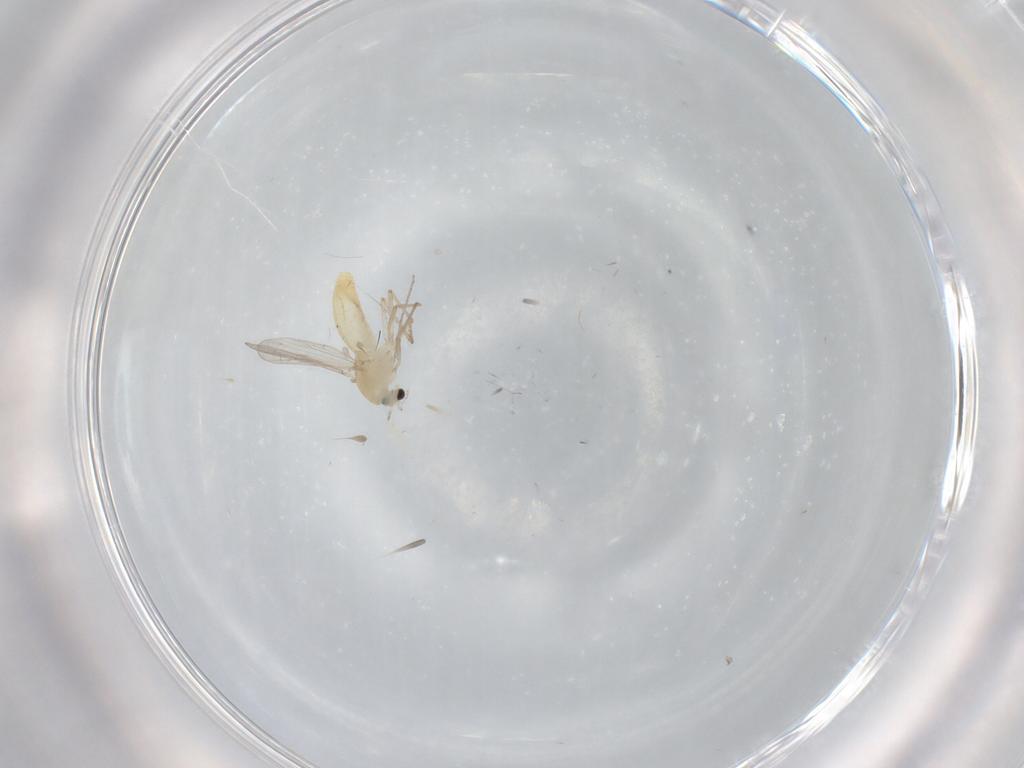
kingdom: Animalia
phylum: Arthropoda
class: Insecta
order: Diptera
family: Chironomidae
